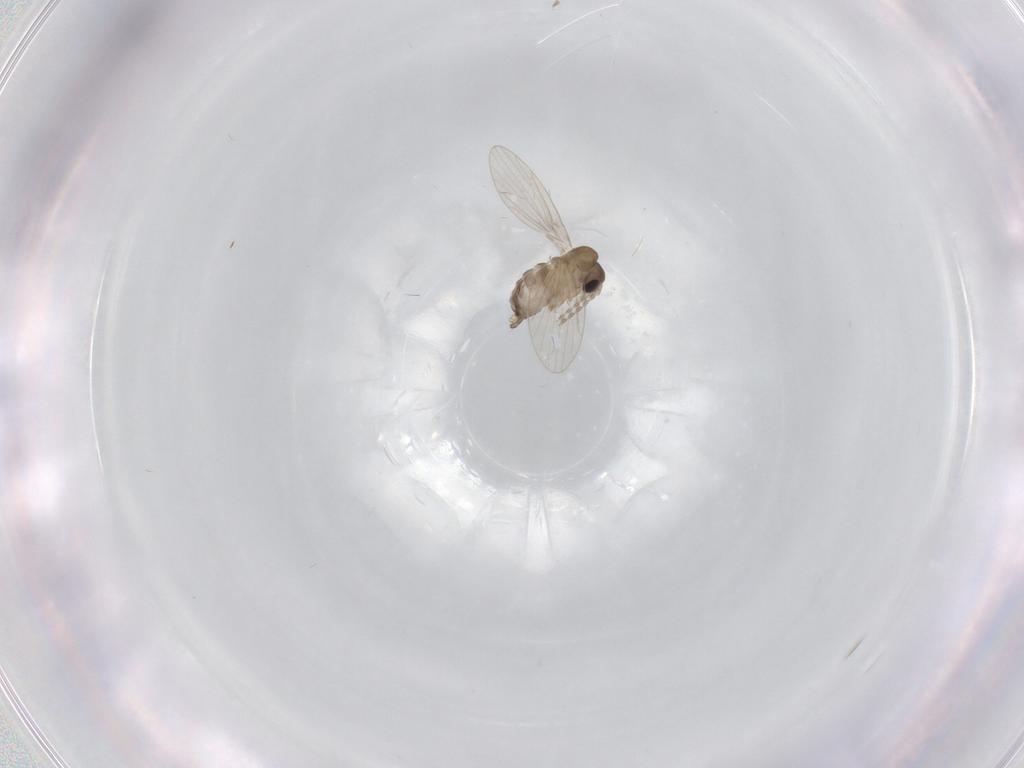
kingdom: Animalia
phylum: Arthropoda
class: Insecta
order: Diptera
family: Ceratopogonidae
